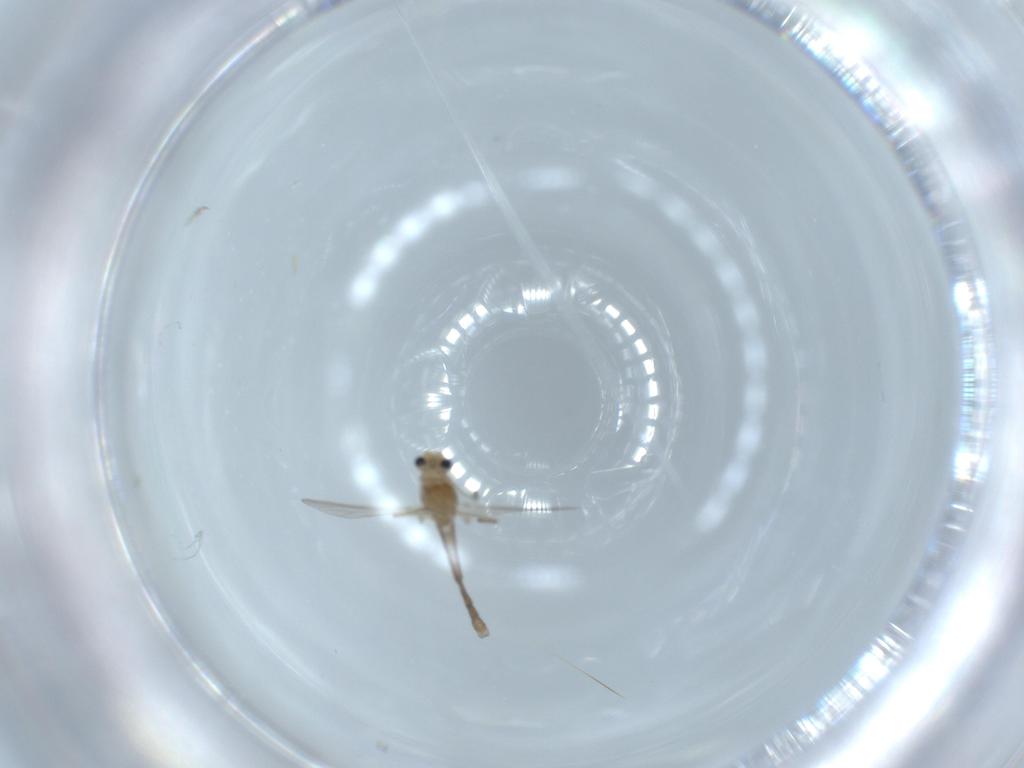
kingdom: Animalia
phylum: Arthropoda
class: Insecta
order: Diptera
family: Chironomidae
